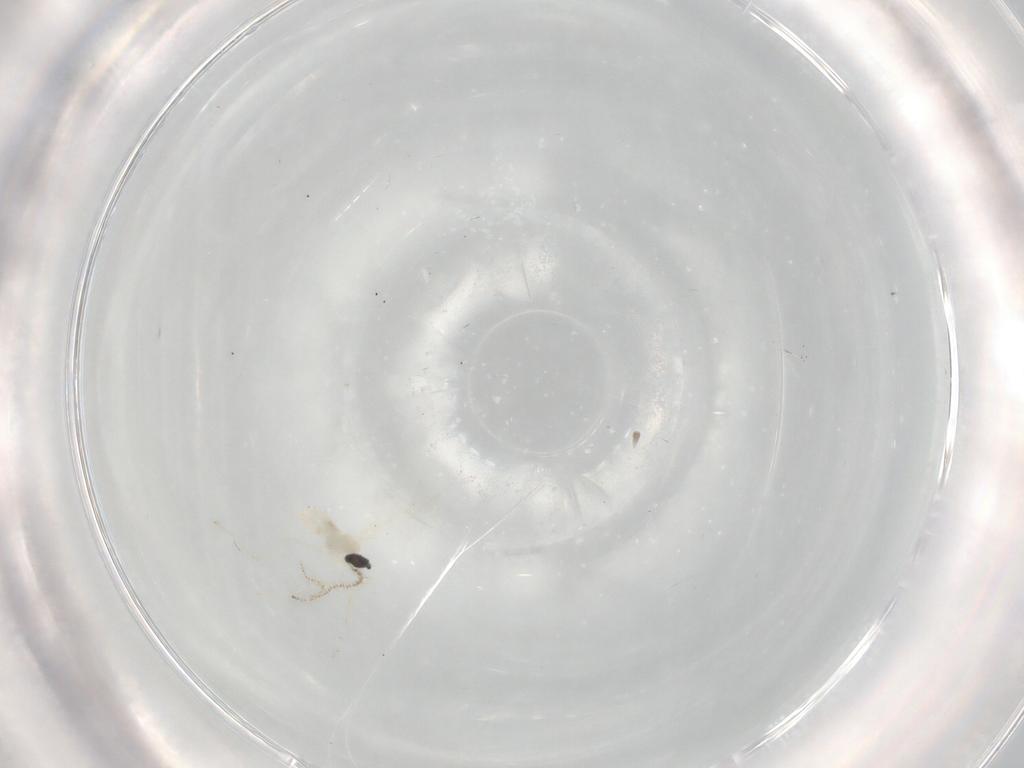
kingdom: Animalia
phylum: Arthropoda
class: Insecta
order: Diptera
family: Cecidomyiidae
